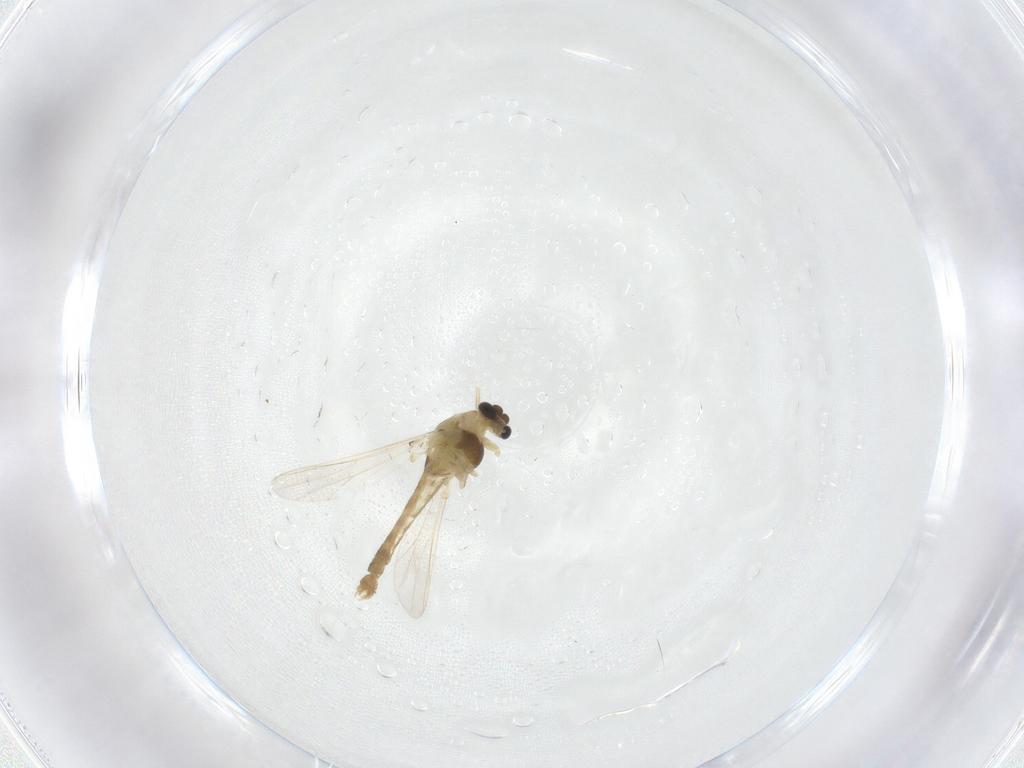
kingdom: Animalia
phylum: Arthropoda
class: Insecta
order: Diptera
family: Chironomidae
